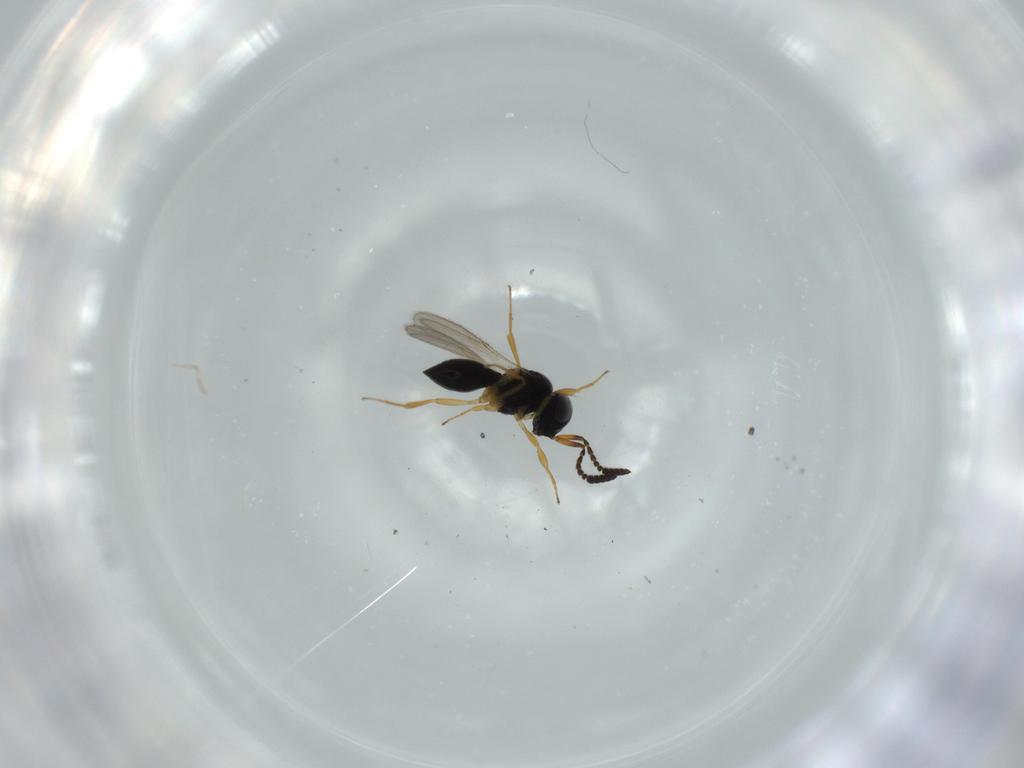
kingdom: Animalia
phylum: Arthropoda
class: Insecta
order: Hymenoptera
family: Scelionidae
